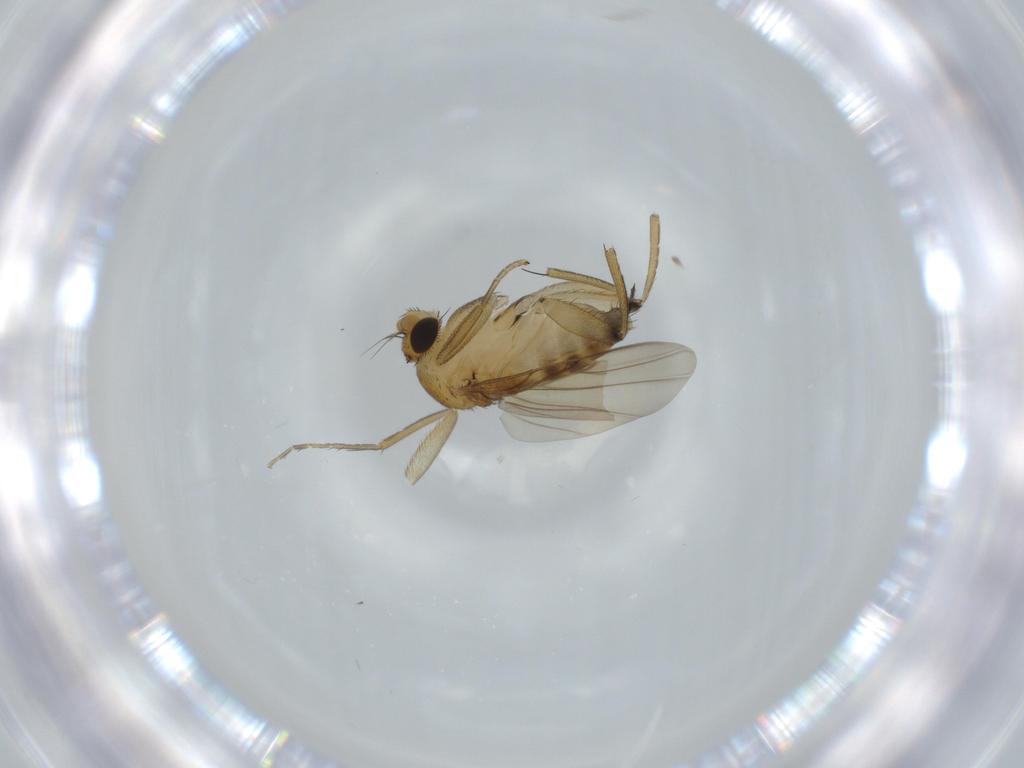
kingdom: Animalia
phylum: Arthropoda
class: Insecta
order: Diptera
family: Phoridae
